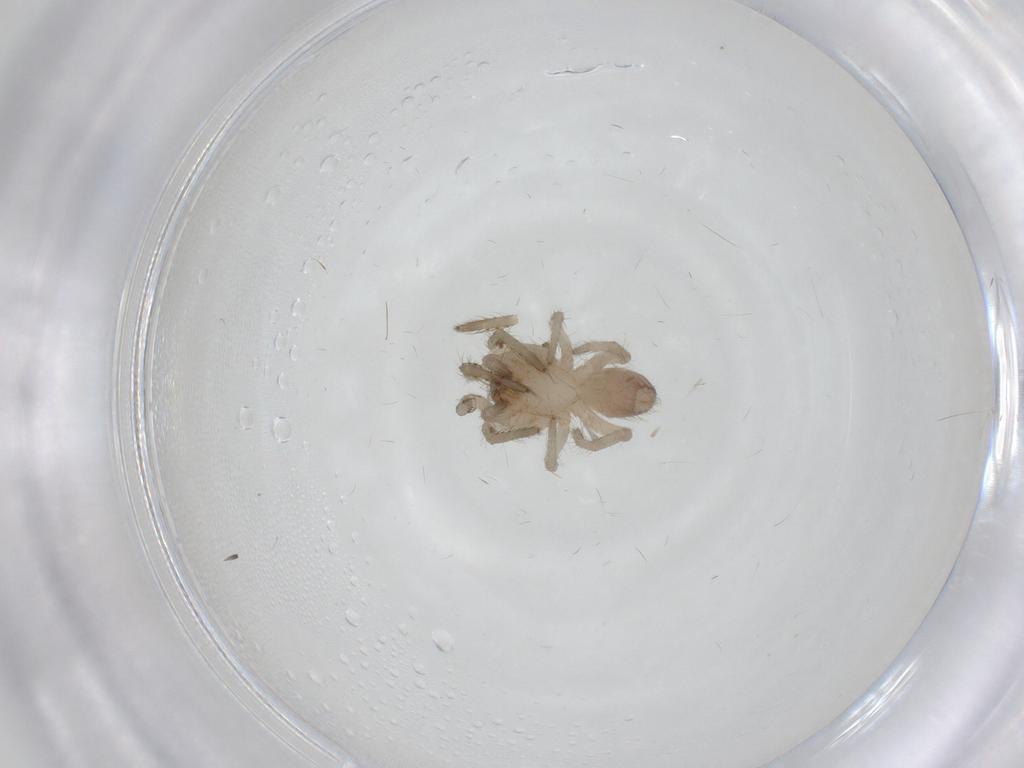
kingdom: Animalia
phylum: Arthropoda
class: Arachnida
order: Araneae
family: Segestriidae
